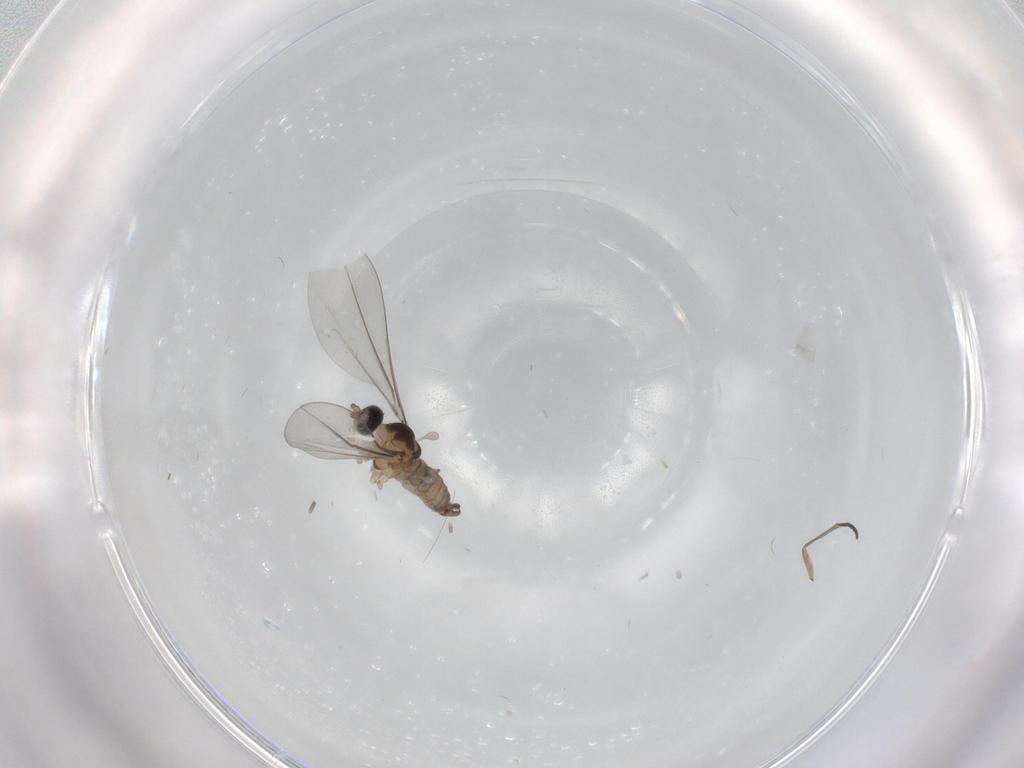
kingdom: Animalia
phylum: Arthropoda
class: Insecta
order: Diptera
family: Cecidomyiidae
